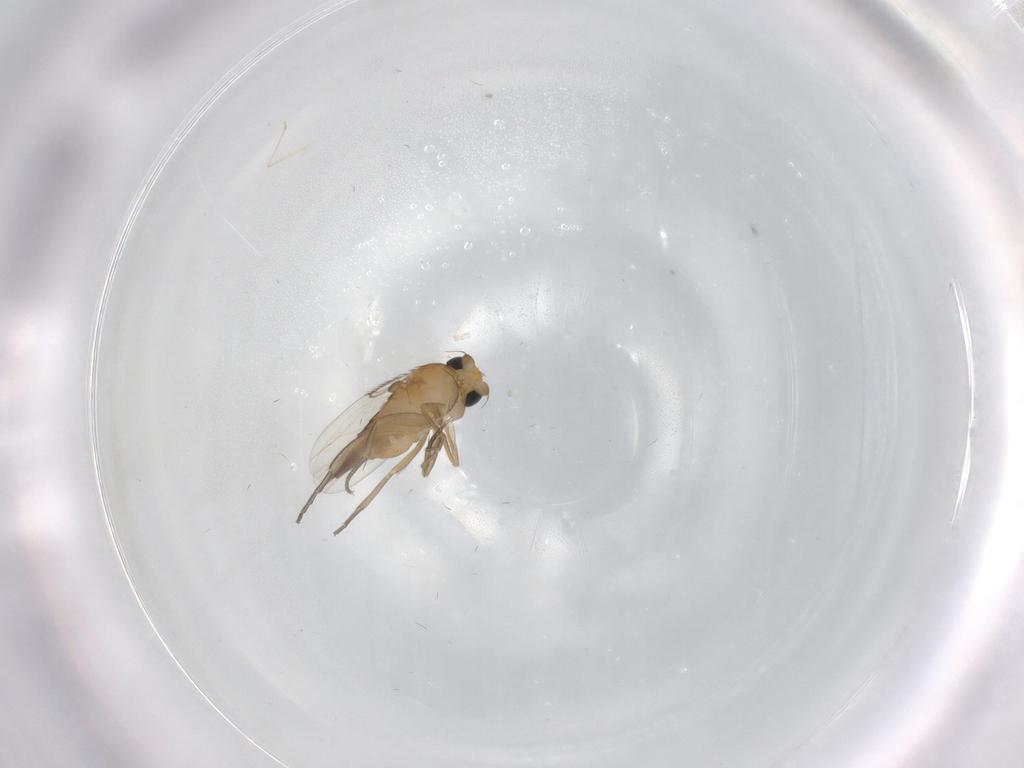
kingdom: Animalia
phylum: Arthropoda
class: Insecta
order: Diptera
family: Phoridae
